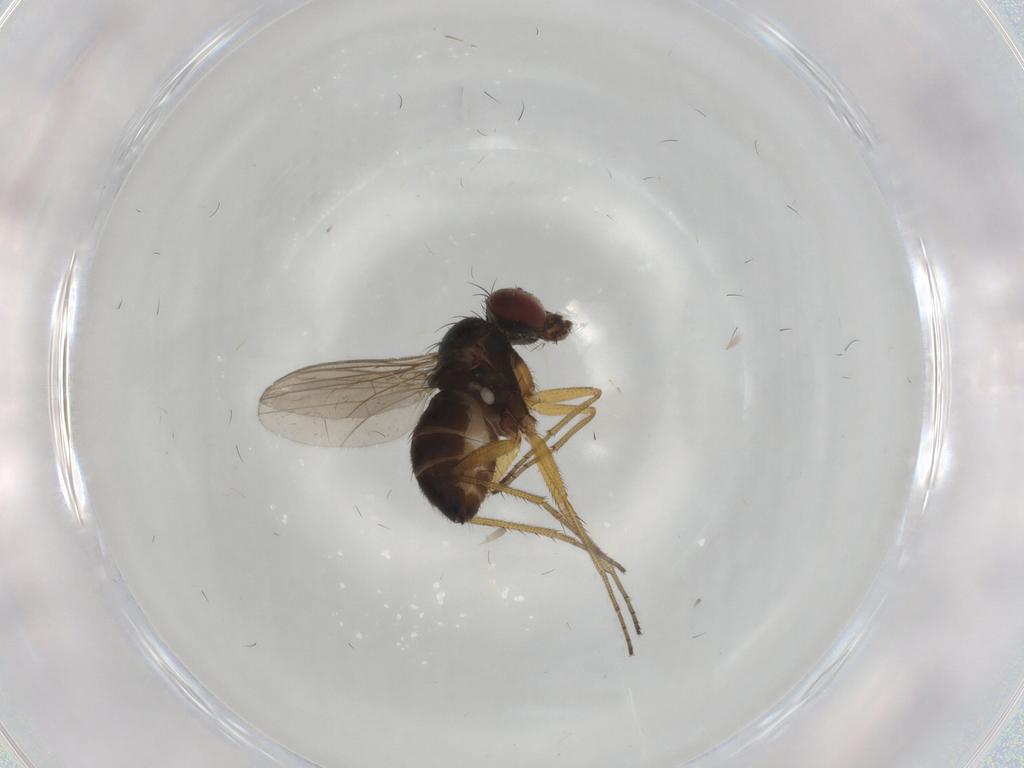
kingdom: Animalia
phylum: Arthropoda
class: Insecta
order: Diptera
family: Dolichopodidae
